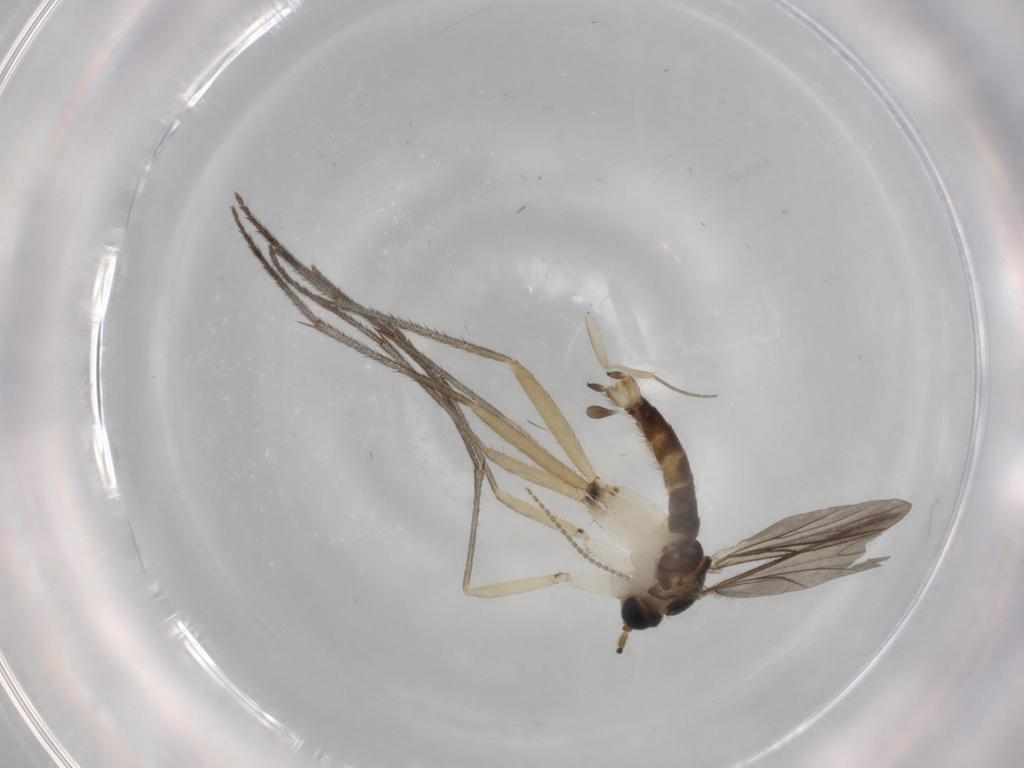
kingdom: Animalia
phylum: Arthropoda
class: Insecta
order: Diptera
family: Sciaridae
